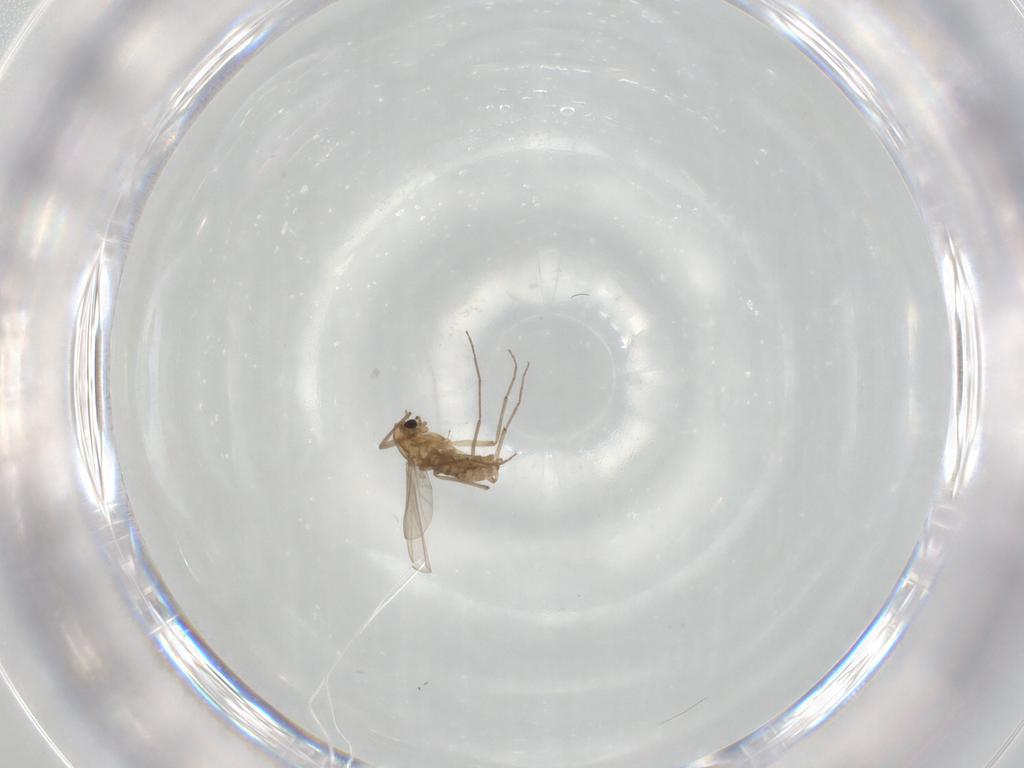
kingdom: Animalia
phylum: Arthropoda
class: Insecta
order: Diptera
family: Chironomidae
